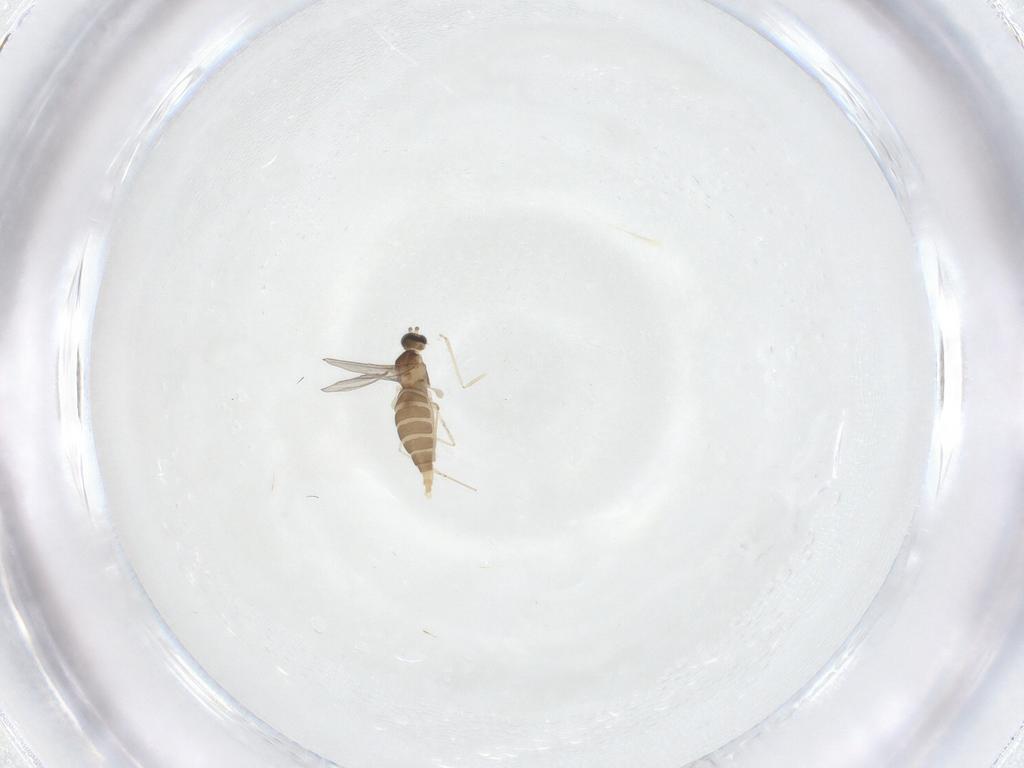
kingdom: Animalia
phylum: Arthropoda
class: Insecta
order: Diptera
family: Cecidomyiidae
